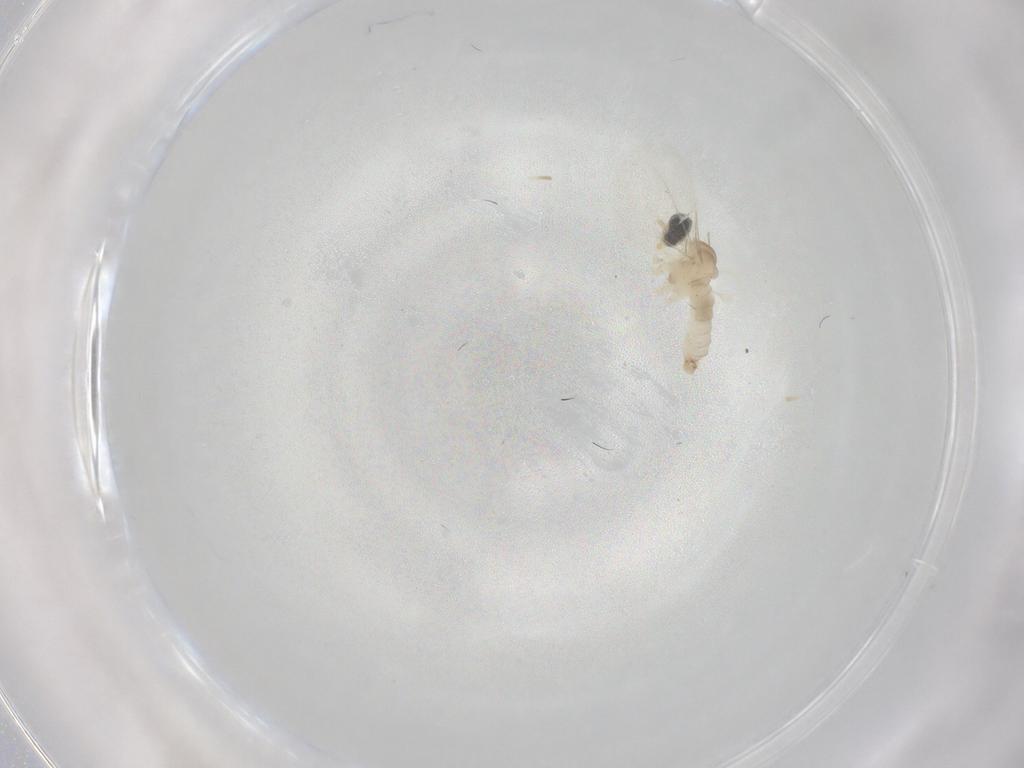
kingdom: Animalia
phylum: Arthropoda
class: Insecta
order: Diptera
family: Cecidomyiidae
